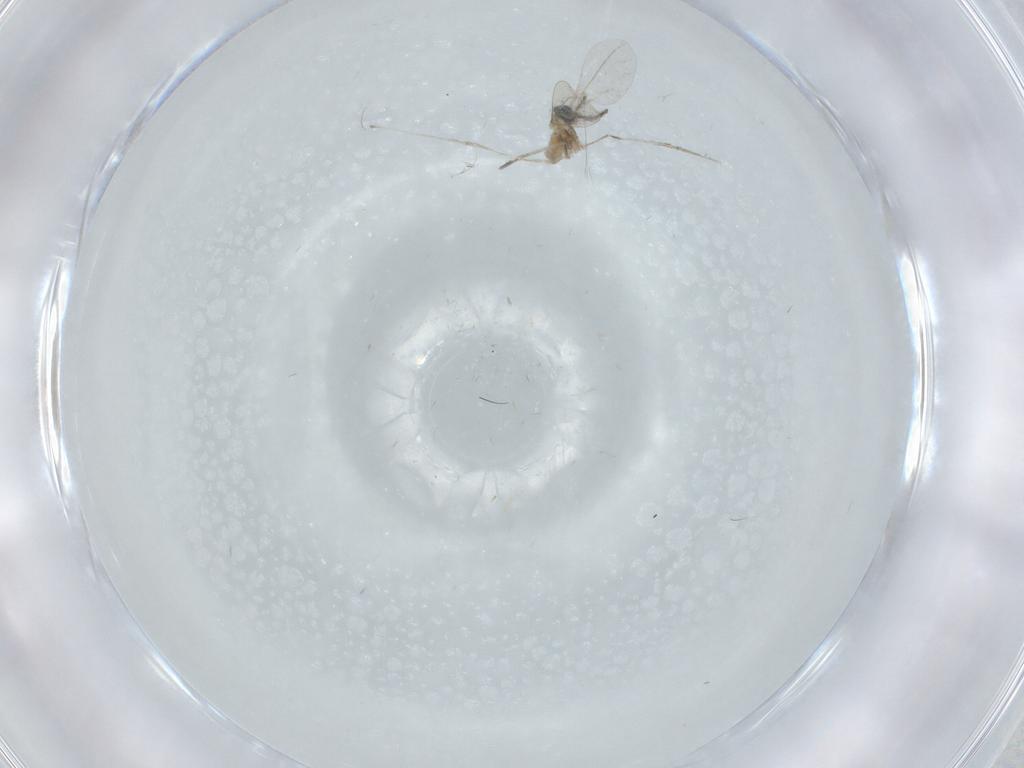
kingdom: Animalia
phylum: Arthropoda
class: Insecta
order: Diptera
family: Cecidomyiidae
